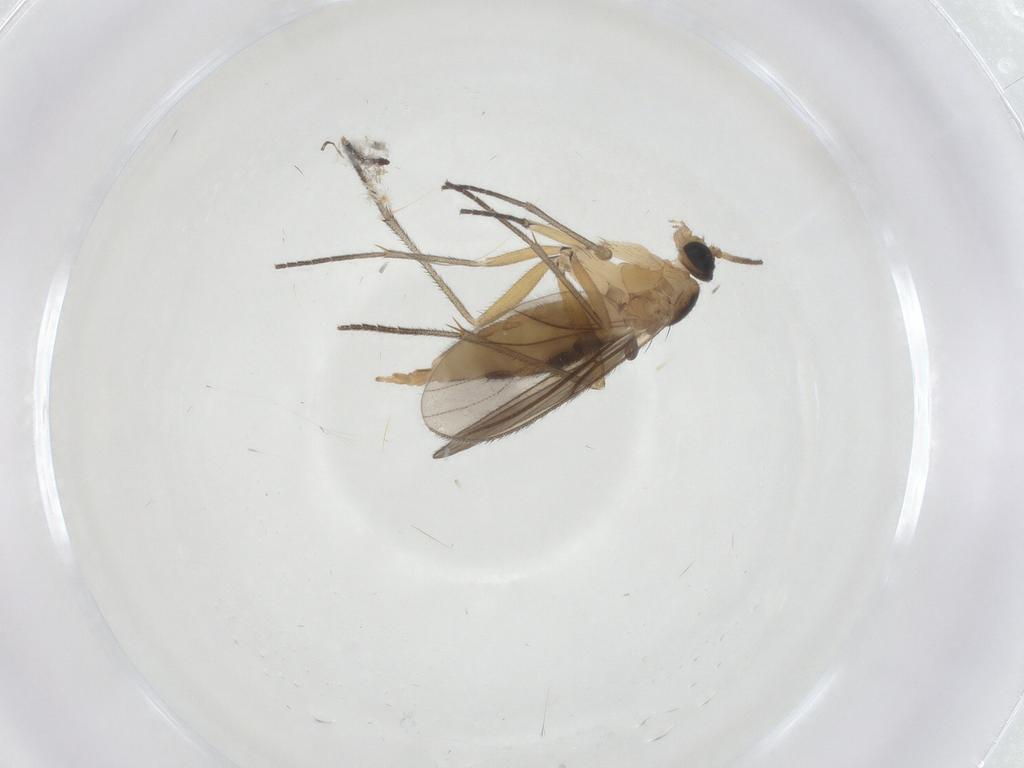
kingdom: Animalia
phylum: Arthropoda
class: Insecta
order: Diptera
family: Sciaridae
